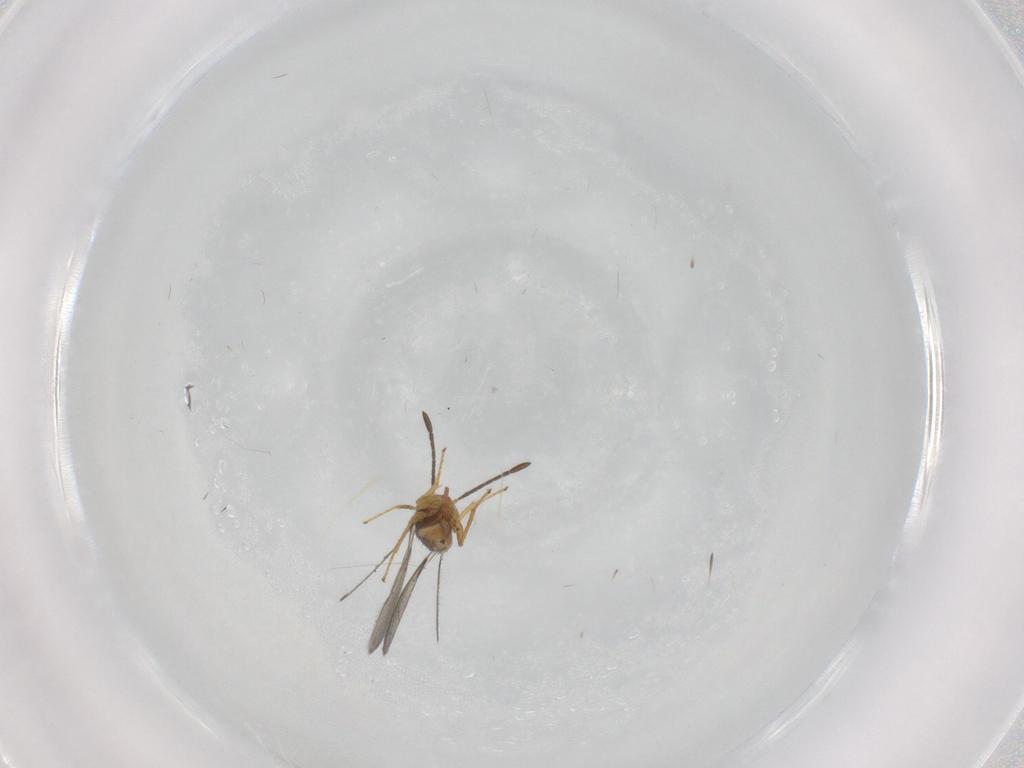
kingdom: Animalia
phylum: Arthropoda
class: Insecta
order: Hymenoptera
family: Mymaridae
